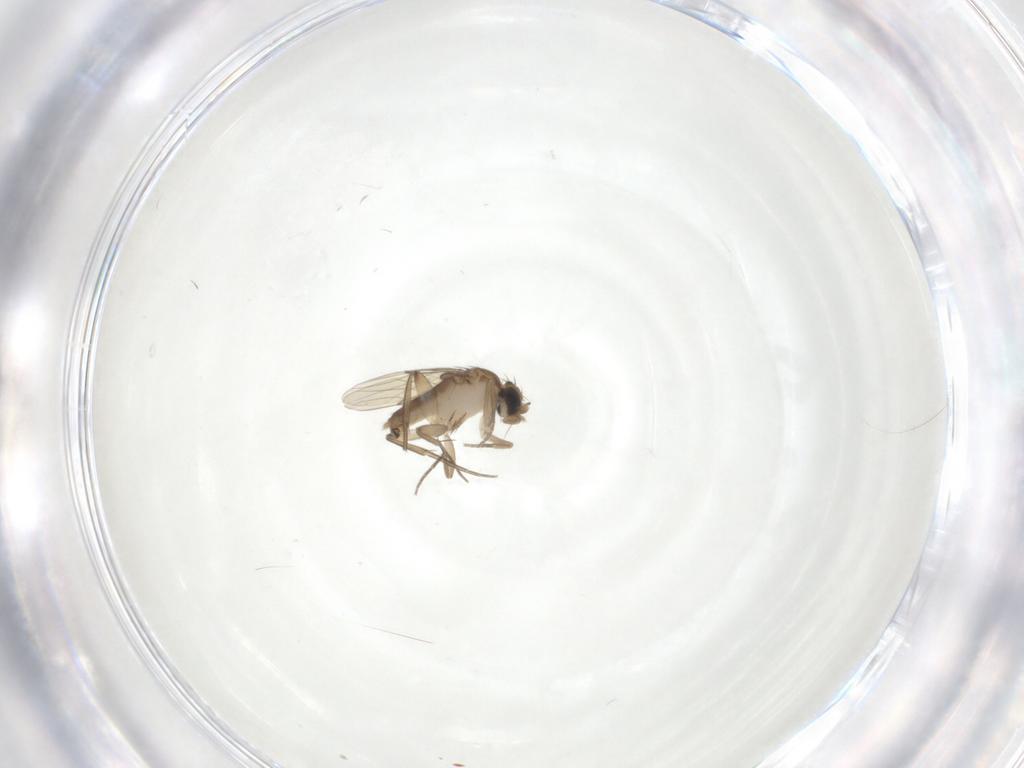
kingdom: Animalia
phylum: Arthropoda
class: Insecta
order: Diptera
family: Phoridae
